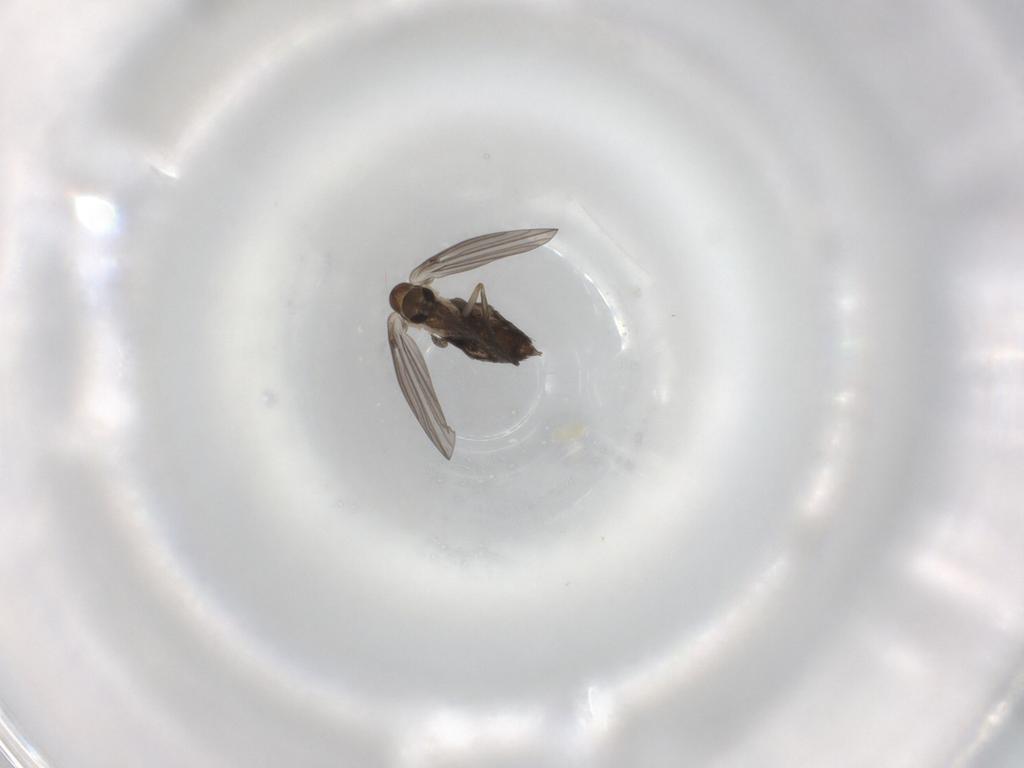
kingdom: Animalia
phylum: Arthropoda
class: Insecta
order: Diptera
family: Psychodidae
